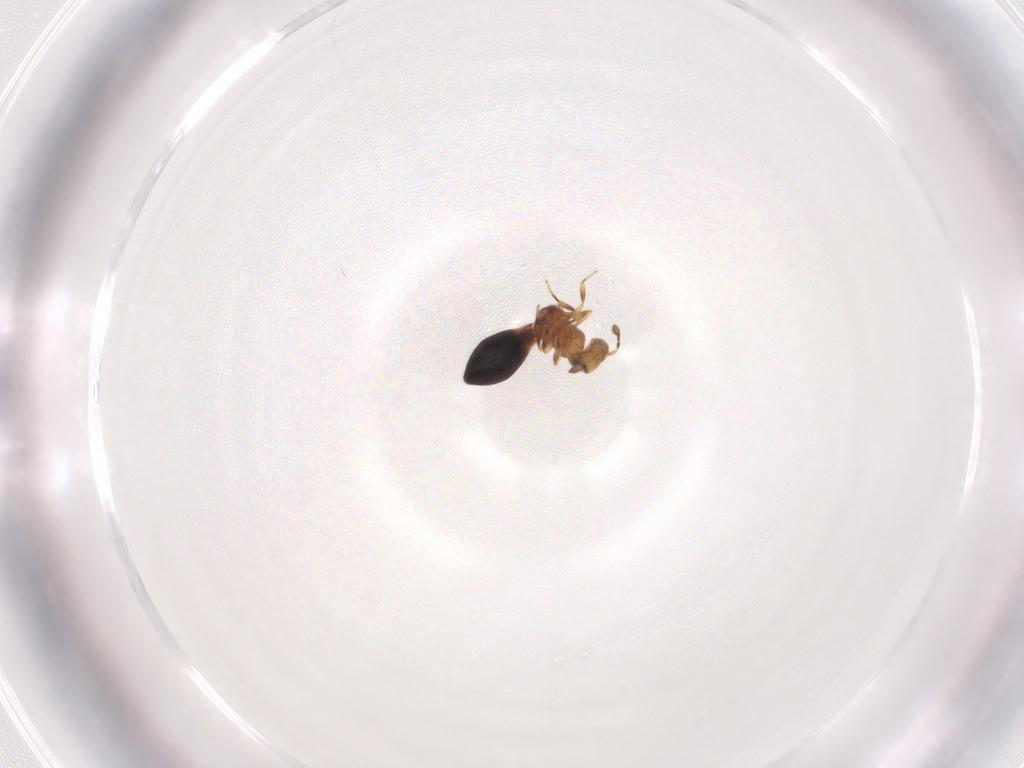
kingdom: Animalia
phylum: Arthropoda
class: Insecta
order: Hymenoptera
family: Scelionidae
